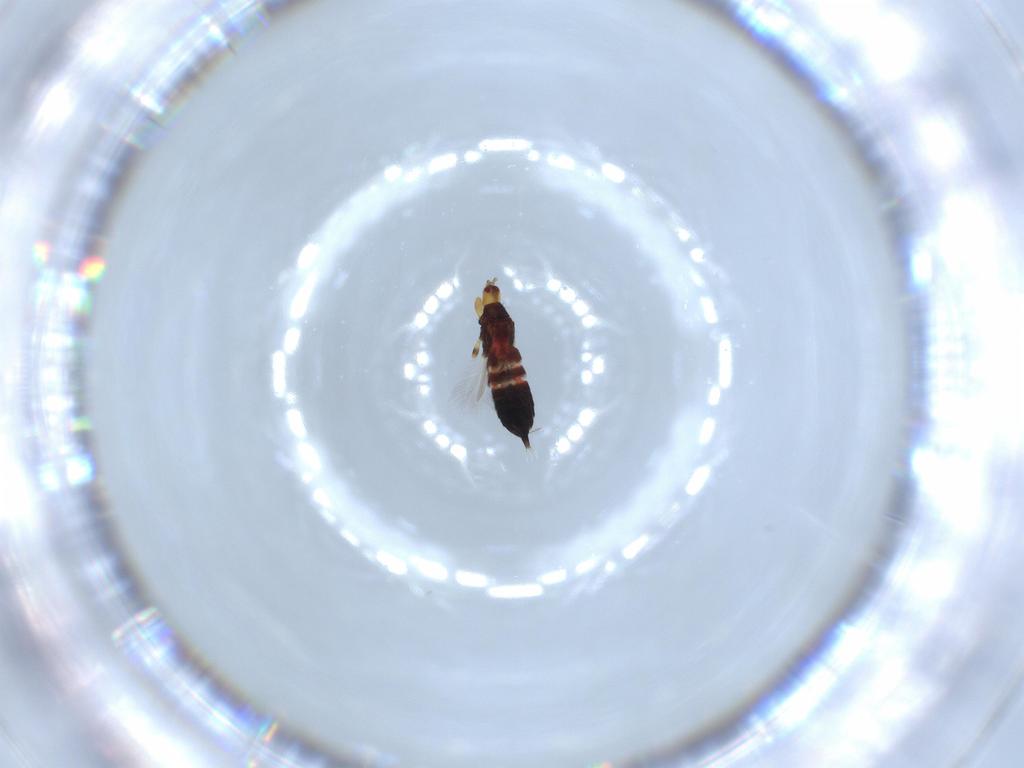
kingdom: Animalia
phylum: Arthropoda
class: Insecta
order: Thysanoptera
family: Phlaeothripidae
